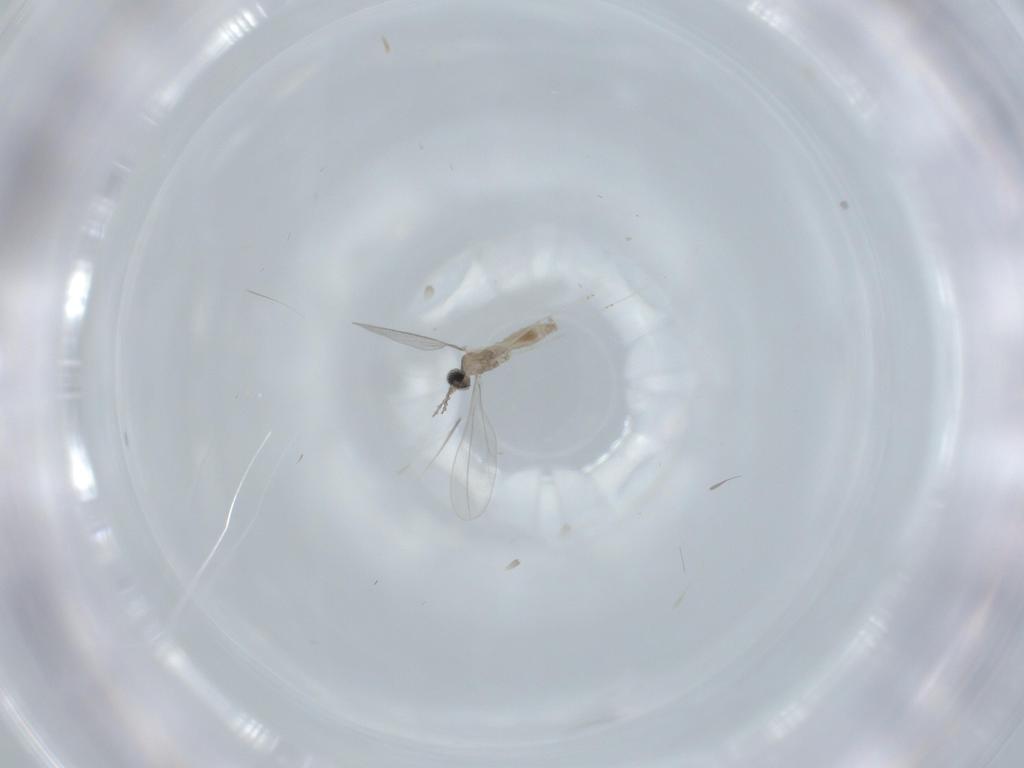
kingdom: Animalia
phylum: Arthropoda
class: Insecta
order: Diptera
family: Cecidomyiidae
